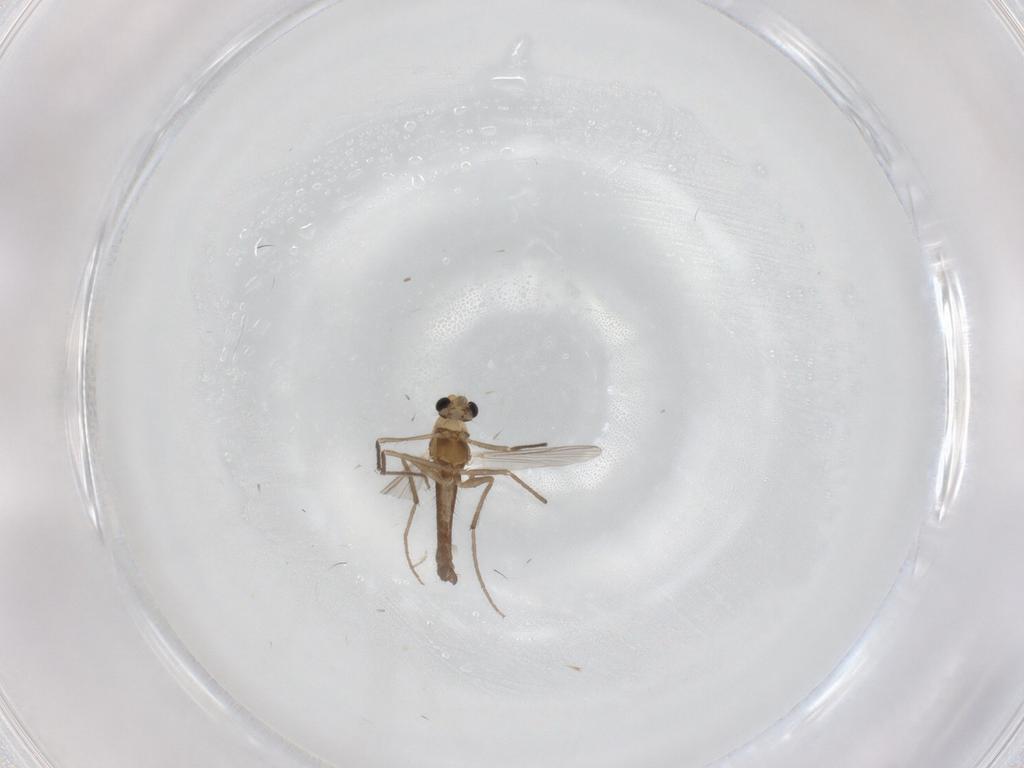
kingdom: Animalia
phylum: Arthropoda
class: Insecta
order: Diptera
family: Chironomidae
